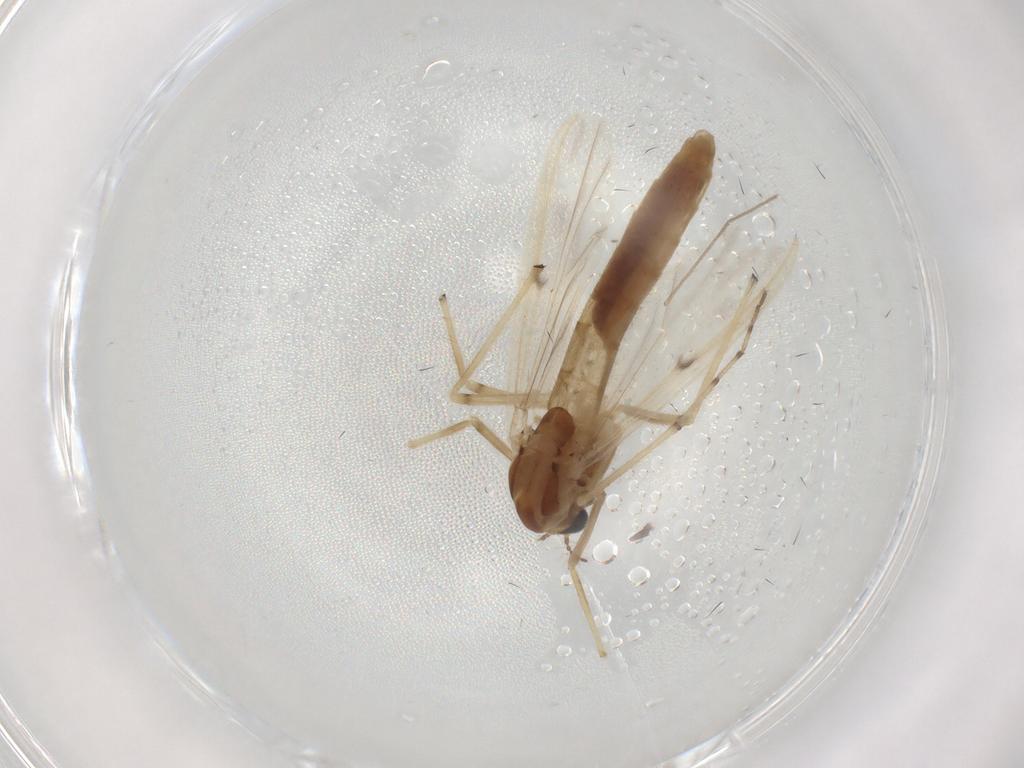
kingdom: Animalia
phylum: Arthropoda
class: Insecta
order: Diptera
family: Chironomidae
